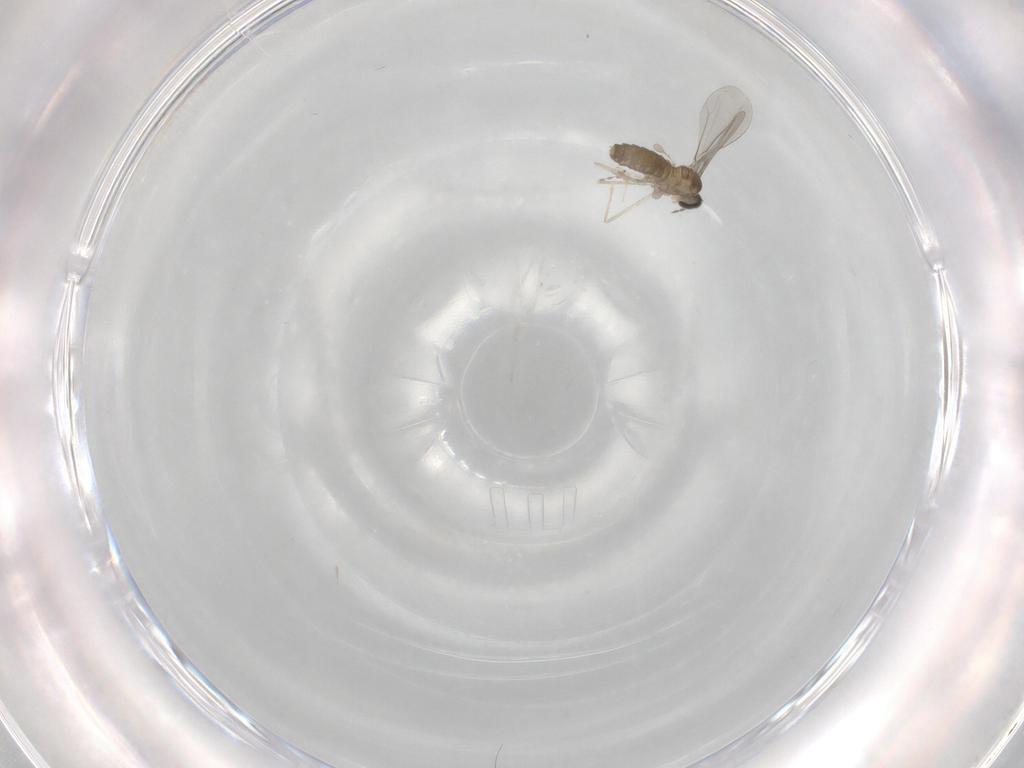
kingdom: Animalia
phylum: Arthropoda
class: Insecta
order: Diptera
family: Cecidomyiidae
